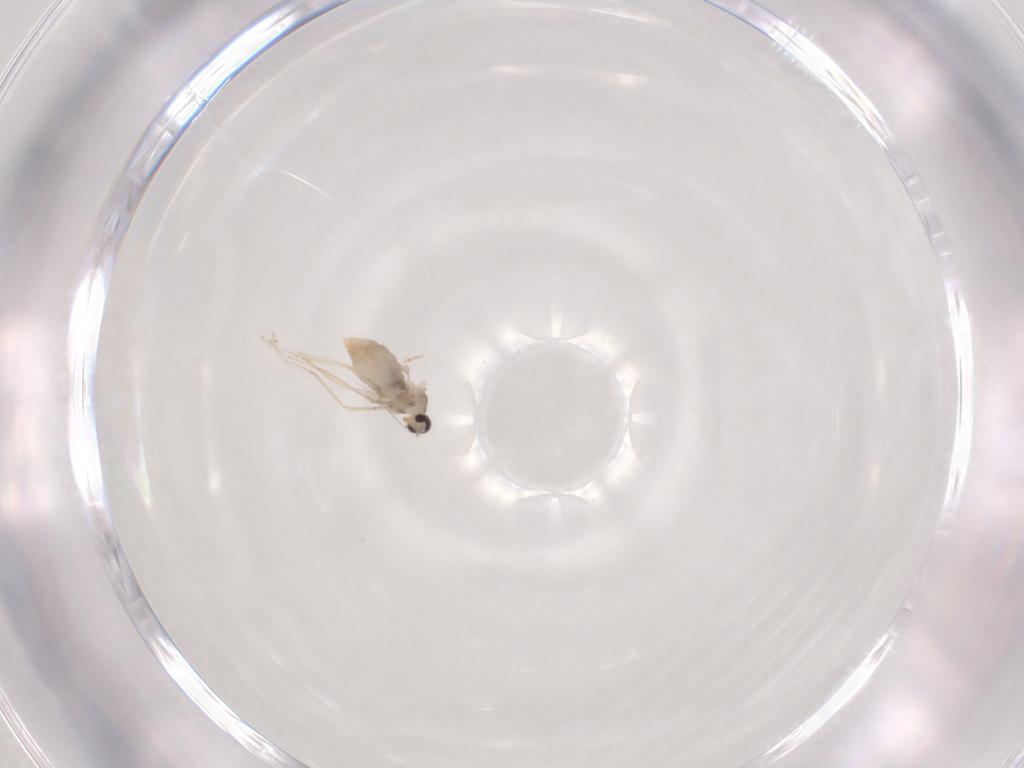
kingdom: Animalia
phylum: Arthropoda
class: Insecta
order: Diptera
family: Cecidomyiidae
